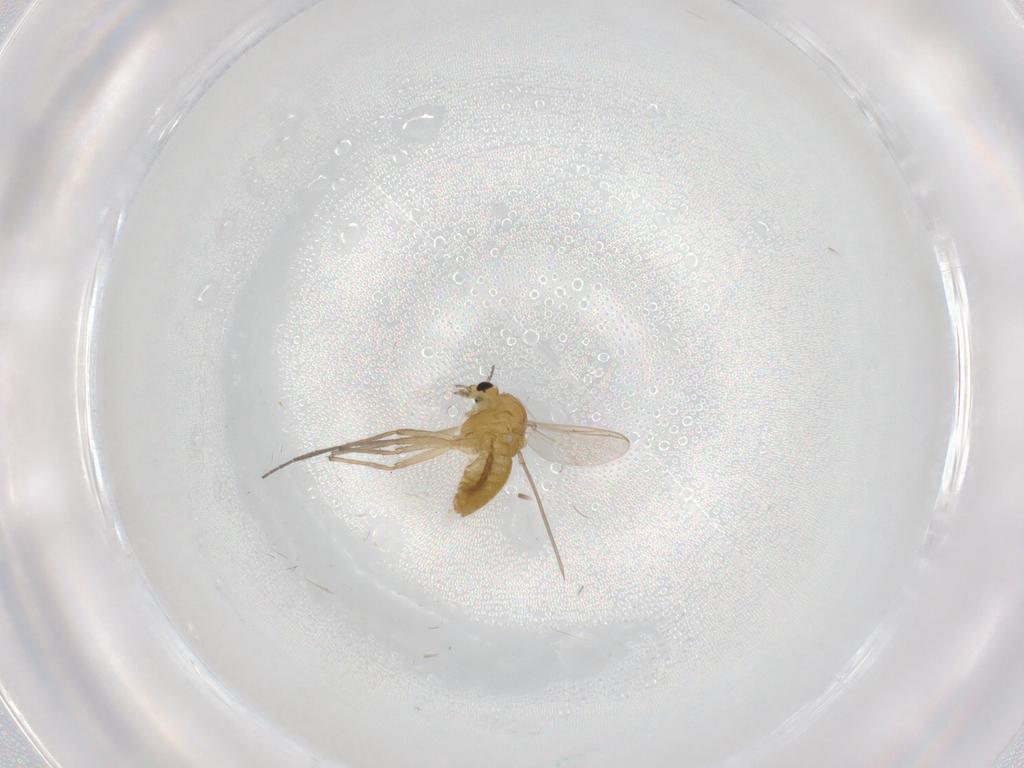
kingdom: Animalia
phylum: Arthropoda
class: Insecta
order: Diptera
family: Chironomidae
